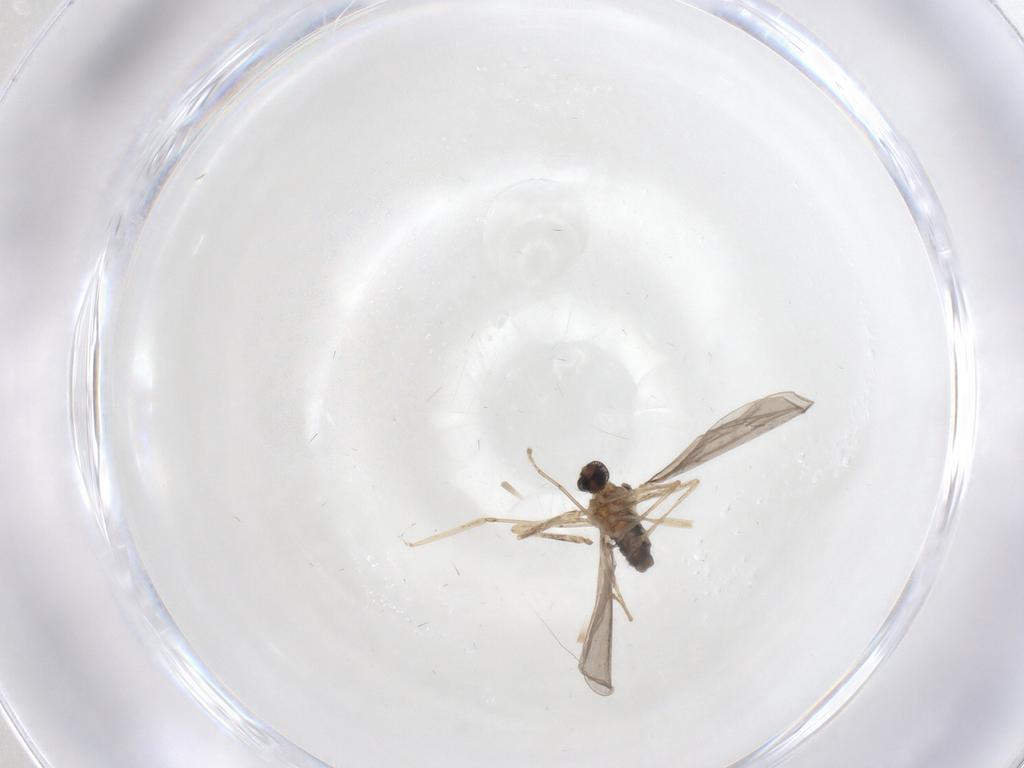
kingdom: Animalia
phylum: Arthropoda
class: Insecta
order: Diptera
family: Cecidomyiidae
